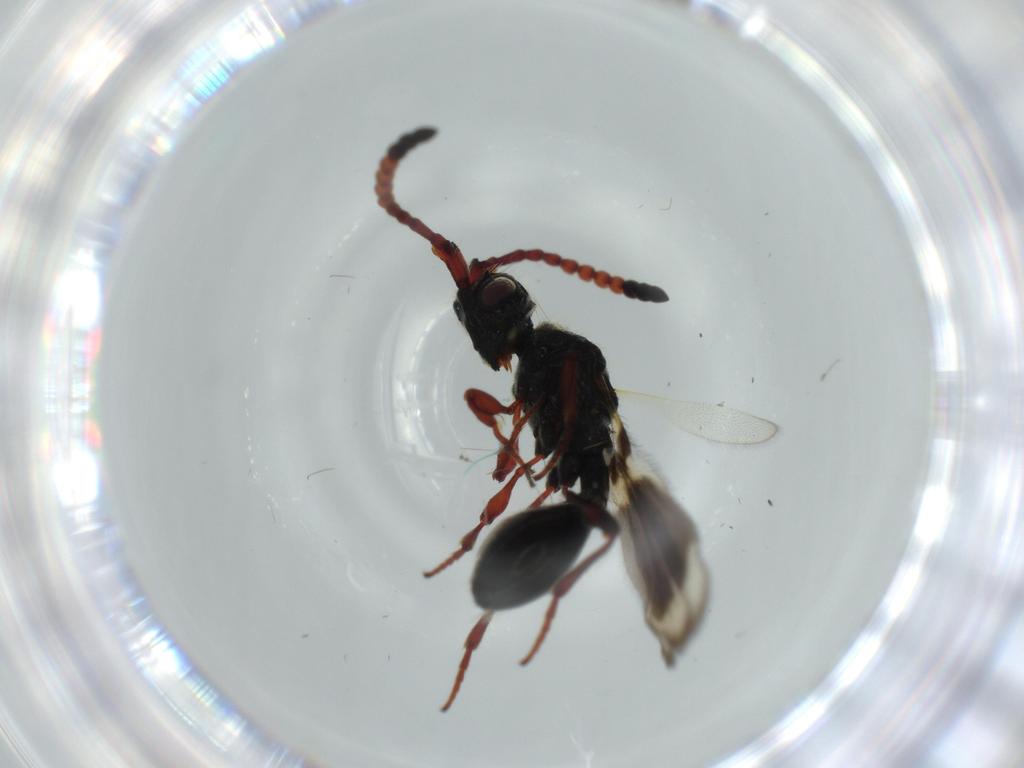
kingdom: Animalia
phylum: Arthropoda
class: Insecta
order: Hymenoptera
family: Diapriidae
